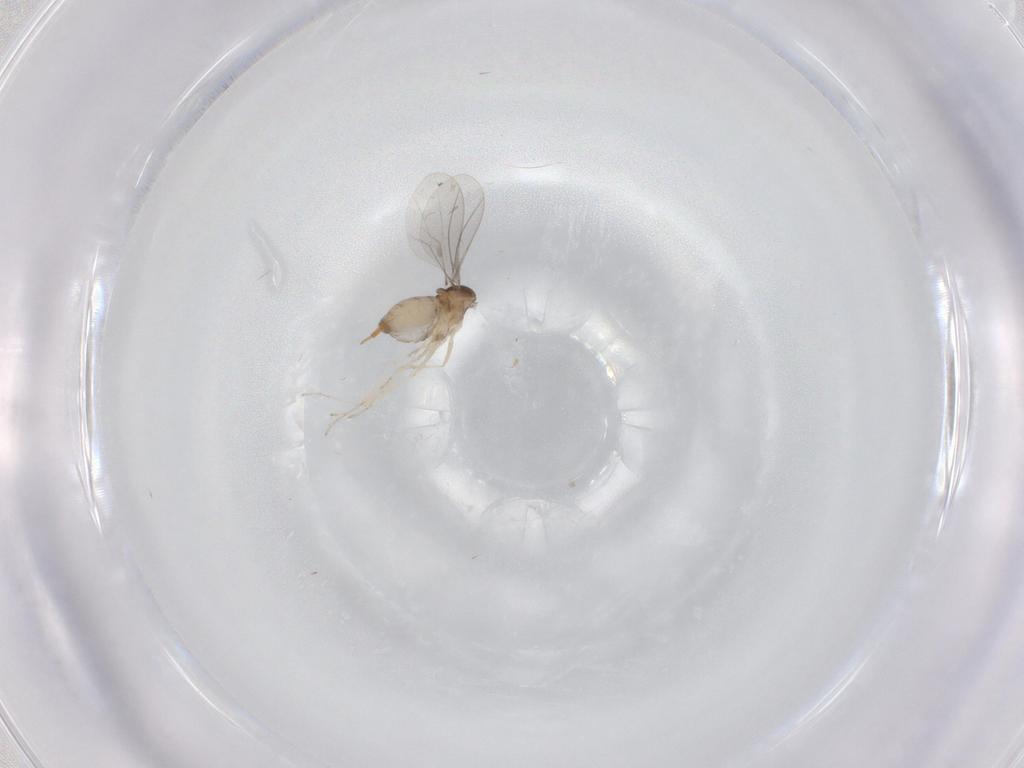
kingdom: Animalia
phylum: Arthropoda
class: Insecta
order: Diptera
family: Cecidomyiidae
